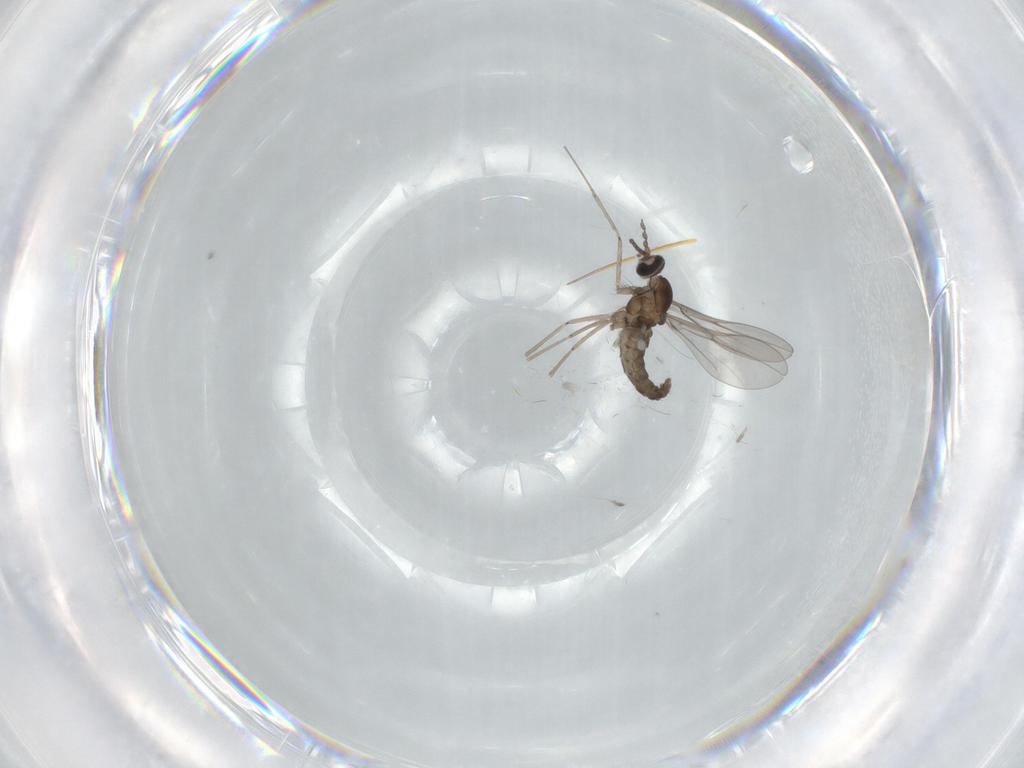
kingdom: Animalia
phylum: Arthropoda
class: Insecta
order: Diptera
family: Cecidomyiidae
